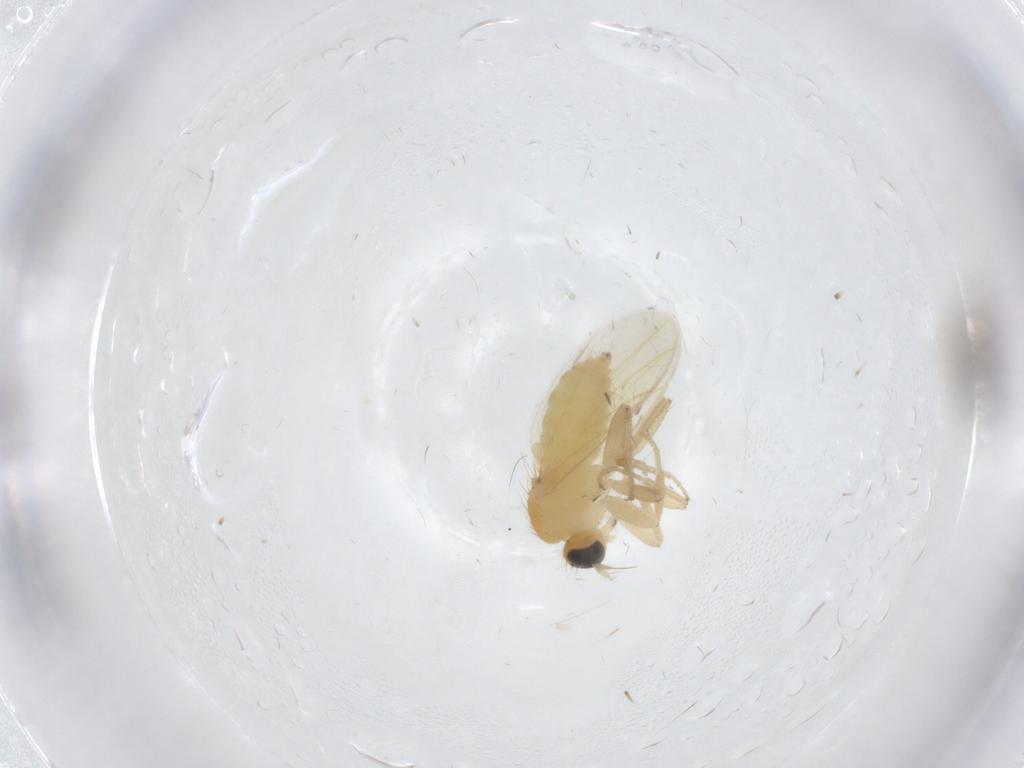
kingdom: Animalia
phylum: Arthropoda
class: Insecta
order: Diptera
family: Hybotidae
